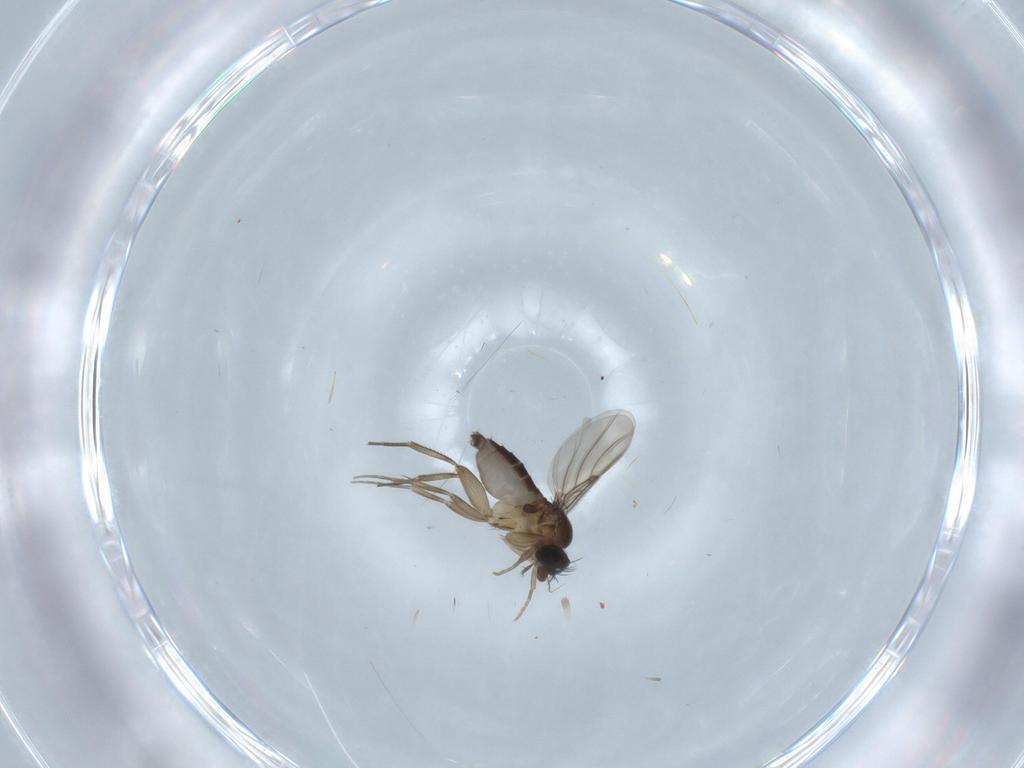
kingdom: Animalia
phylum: Arthropoda
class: Insecta
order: Diptera
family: Phoridae
